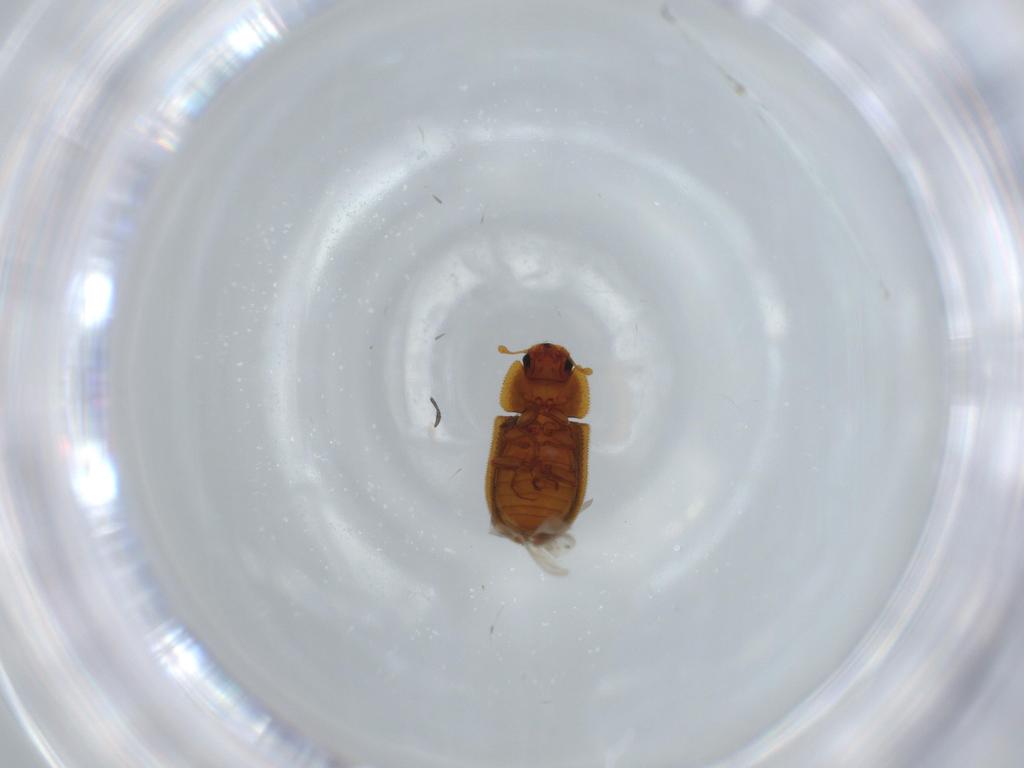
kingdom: Animalia
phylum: Arthropoda
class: Insecta
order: Coleoptera
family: Zopheridae
